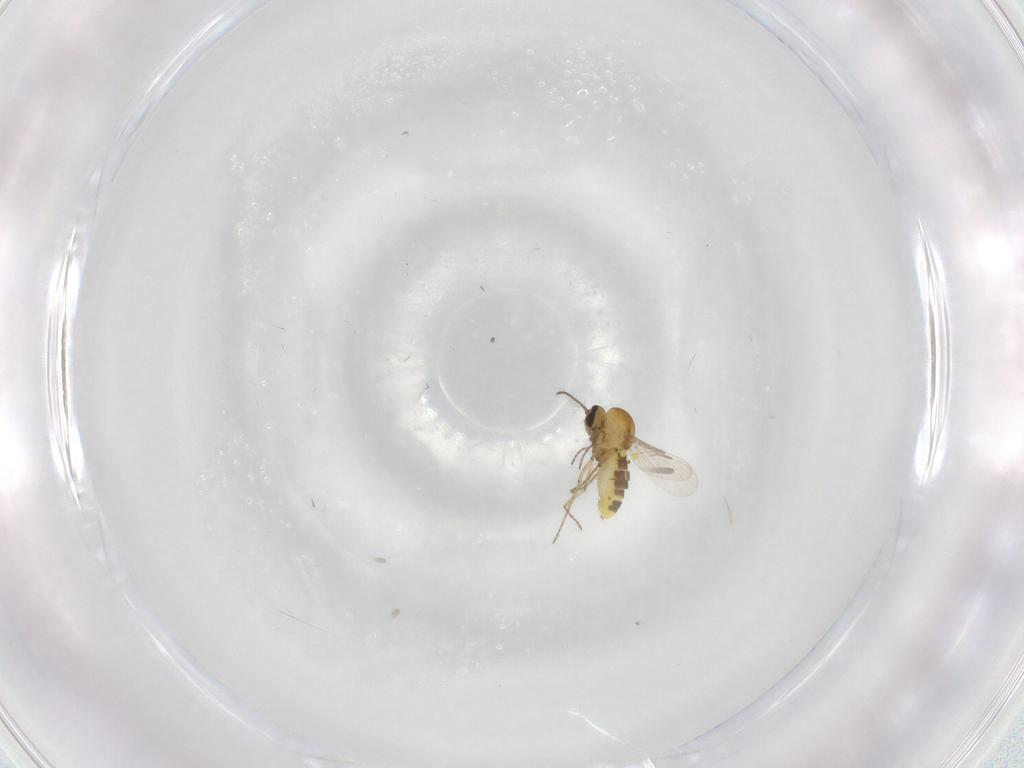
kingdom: Animalia
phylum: Arthropoda
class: Insecta
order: Diptera
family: Ceratopogonidae
